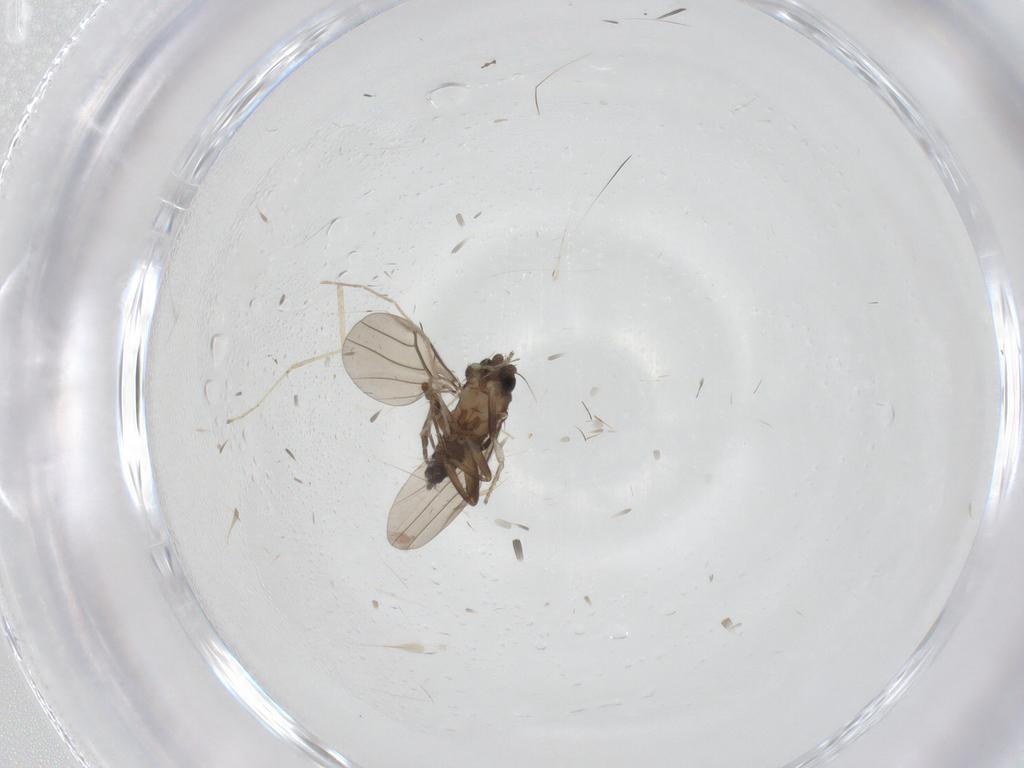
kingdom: Animalia
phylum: Arthropoda
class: Insecta
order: Diptera
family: Chironomidae
